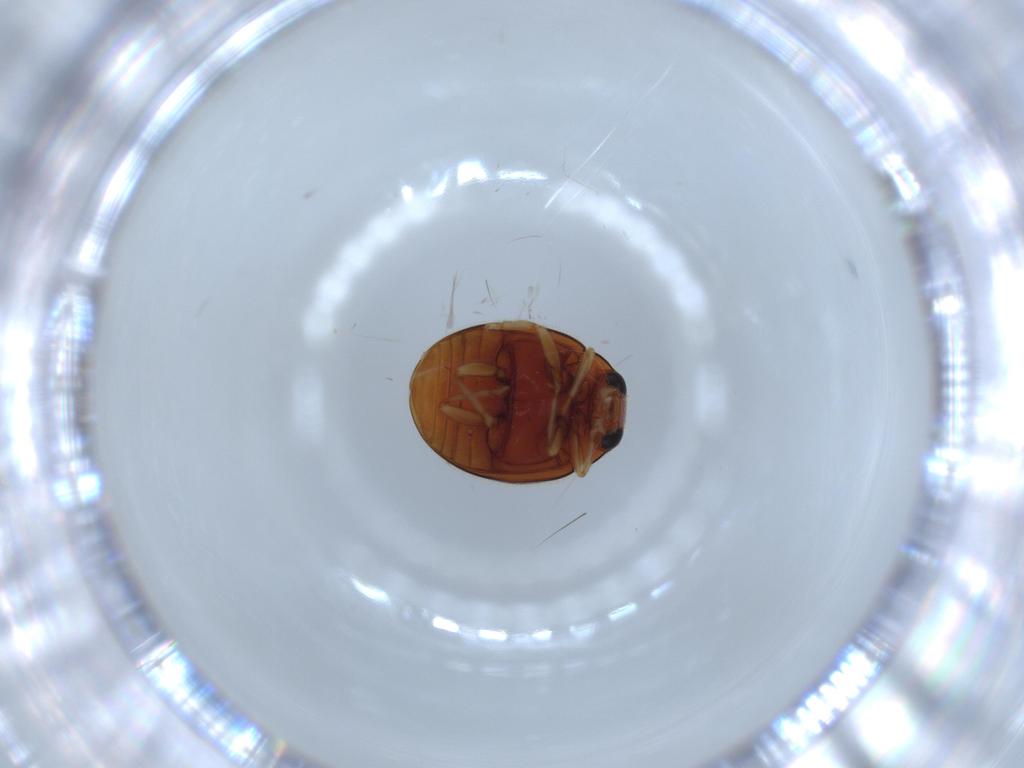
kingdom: Animalia
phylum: Arthropoda
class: Insecta
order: Coleoptera
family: Coccinellidae
